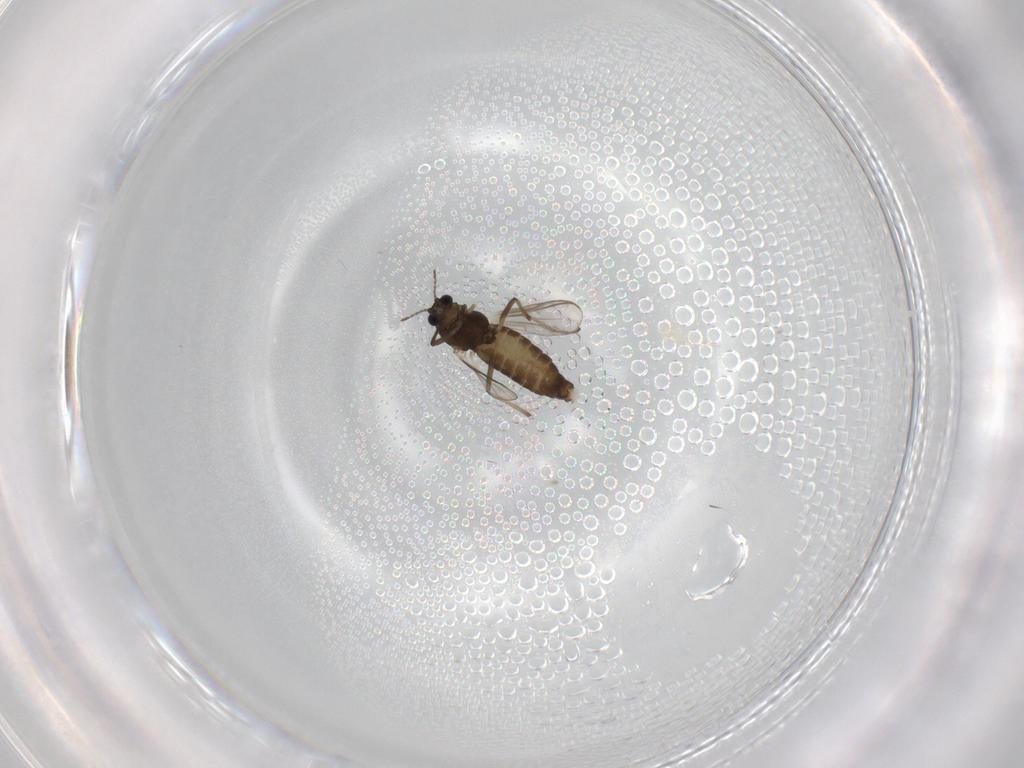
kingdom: Animalia
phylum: Arthropoda
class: Insecta
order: Diptera
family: Chironomidae
